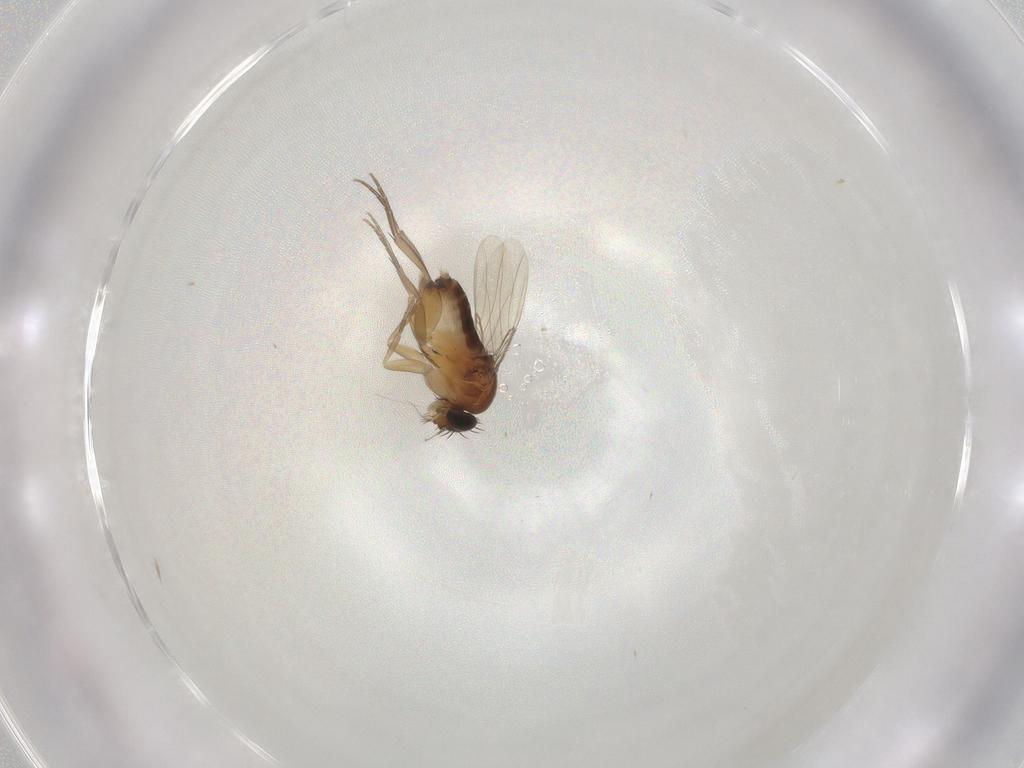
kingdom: Animalia
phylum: Arthropoda
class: Insecta
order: Diptera
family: Phoridae
